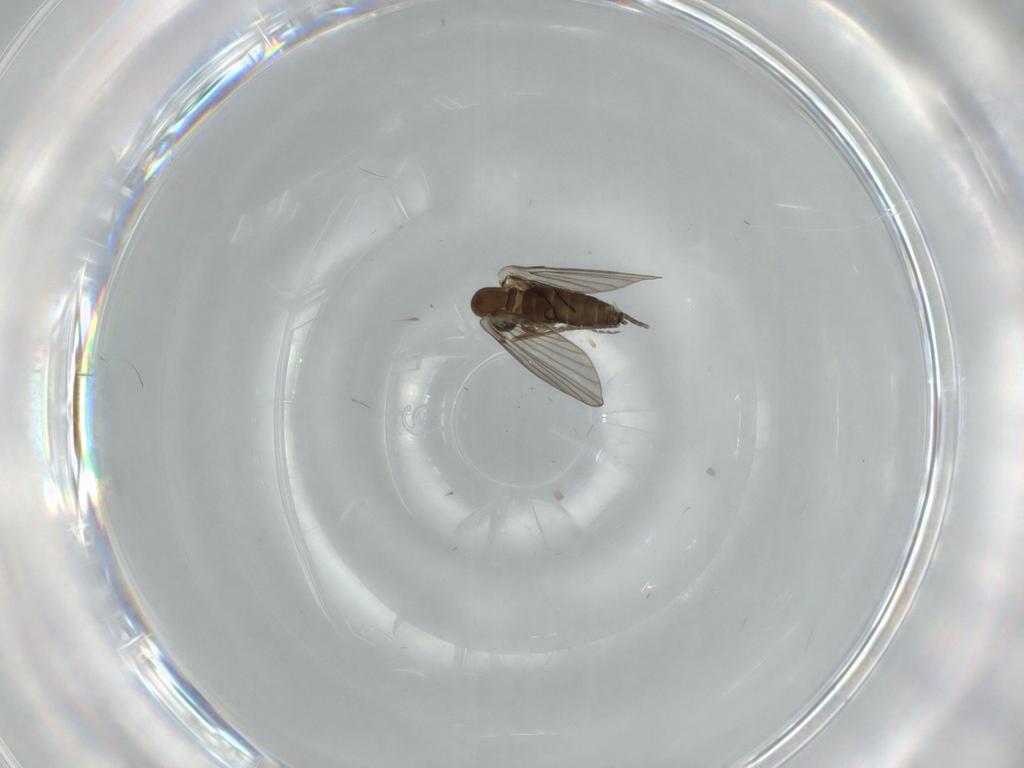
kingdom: Animalia
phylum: Arthropoda
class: Insecta
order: Diptera
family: Psychodidae
